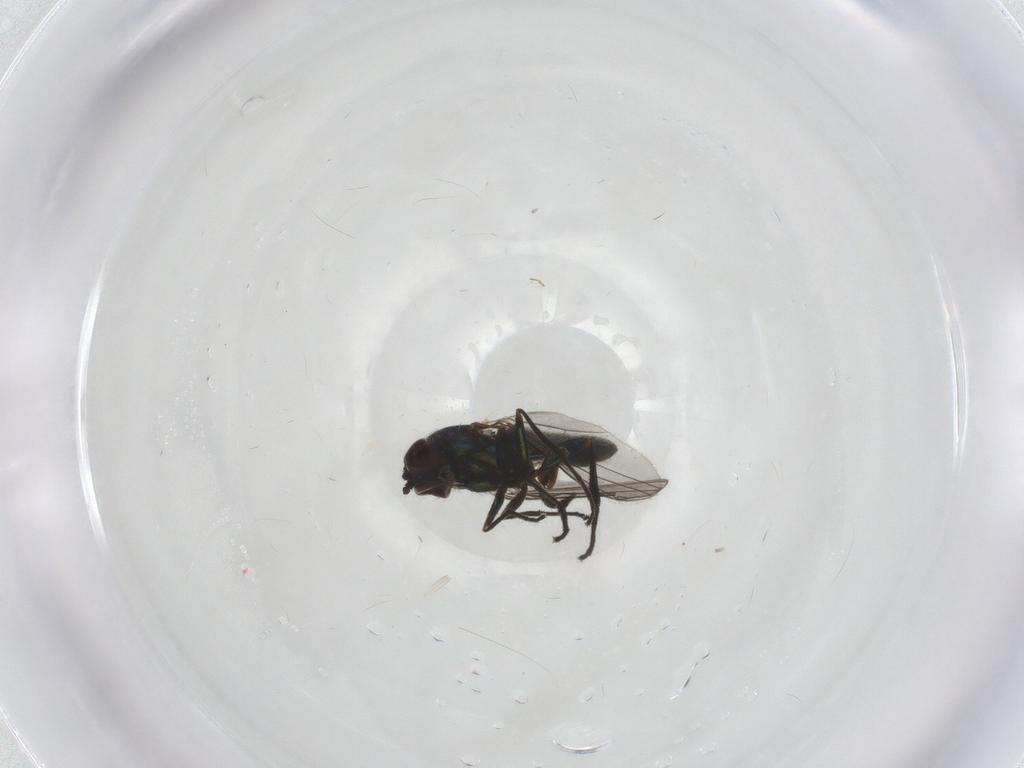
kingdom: Animalia
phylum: Arthropoda
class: Insecta
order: Diptera
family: Dolichopodidae
